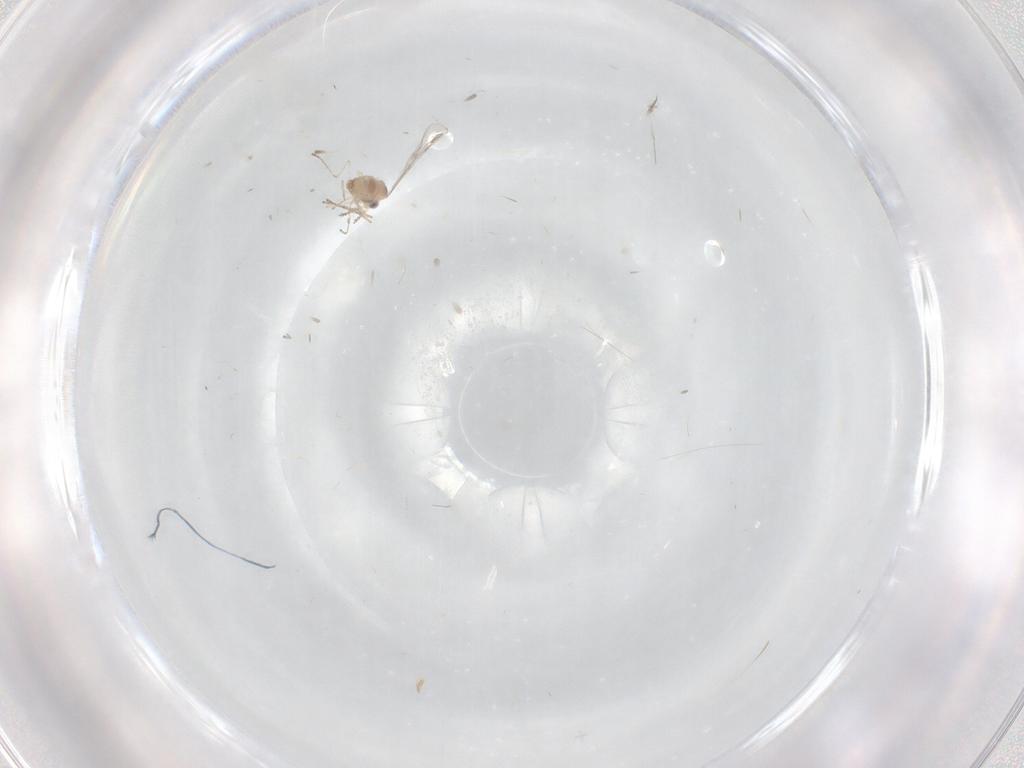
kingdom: Animalia
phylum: Arthropoda
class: Insecta
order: Diptera
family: Cecidomyiidae
